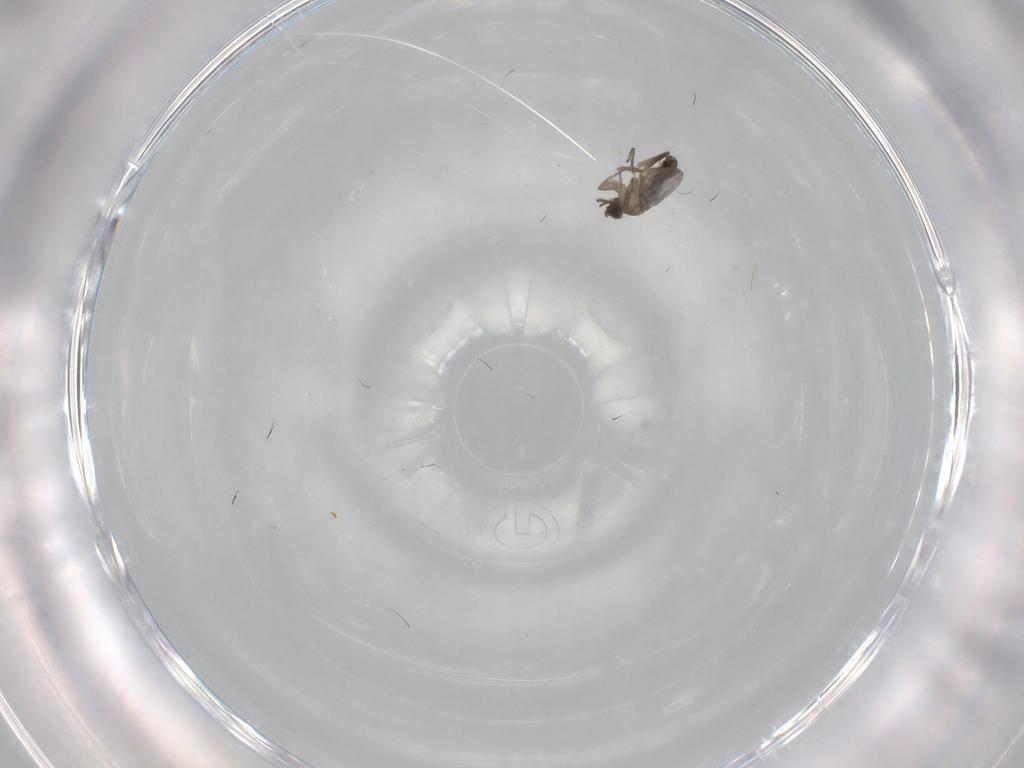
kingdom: Animalia
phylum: Arthropoda
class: Insecta
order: Diptera
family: Cecidomyiidae
